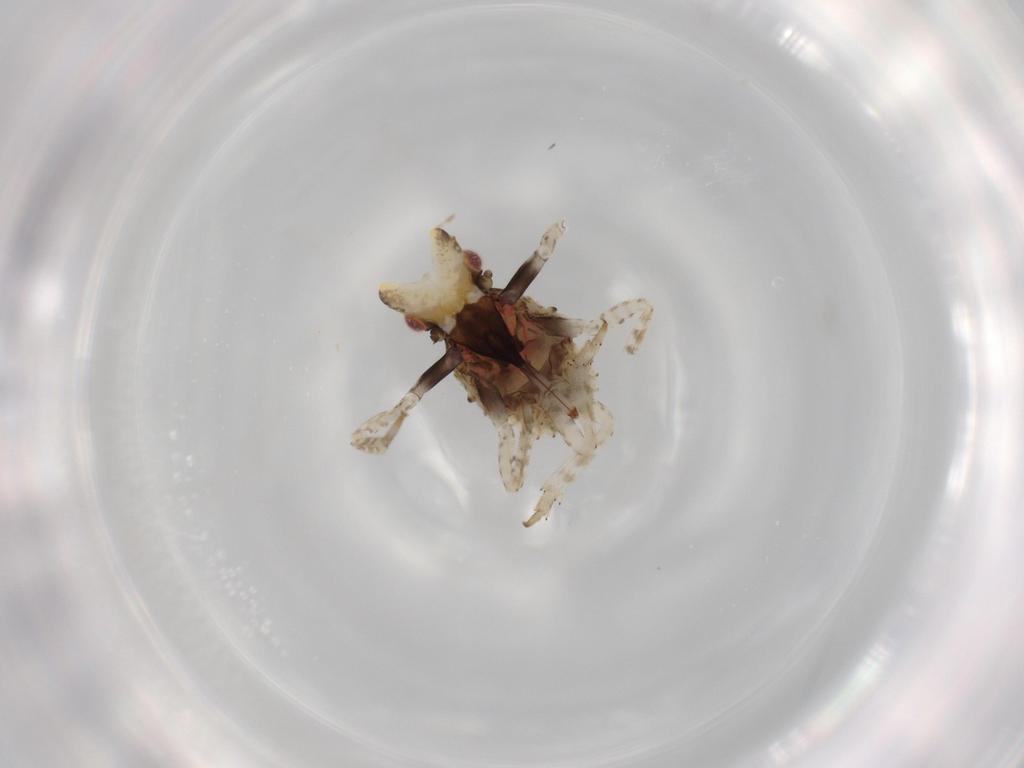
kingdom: Animalia
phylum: Arthropoda
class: Insecta
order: Hemiptera
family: Fulgoridae
